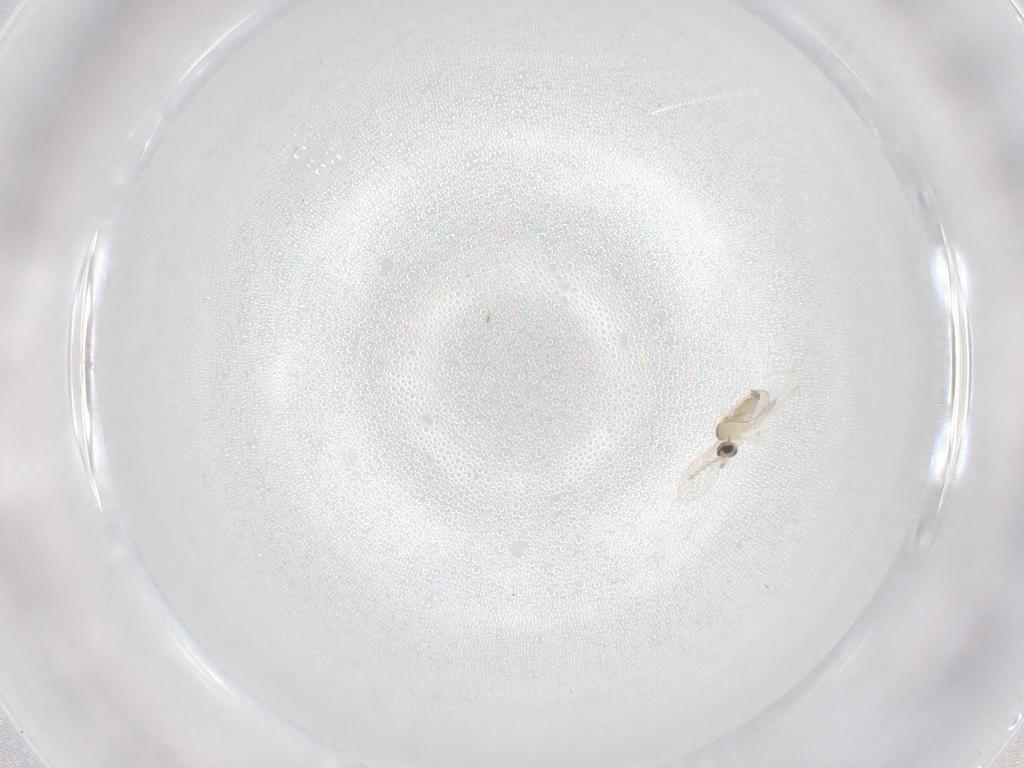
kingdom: Animalia
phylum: Arthropoda
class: Insecta
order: Diptera
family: Cecidomyiidae
